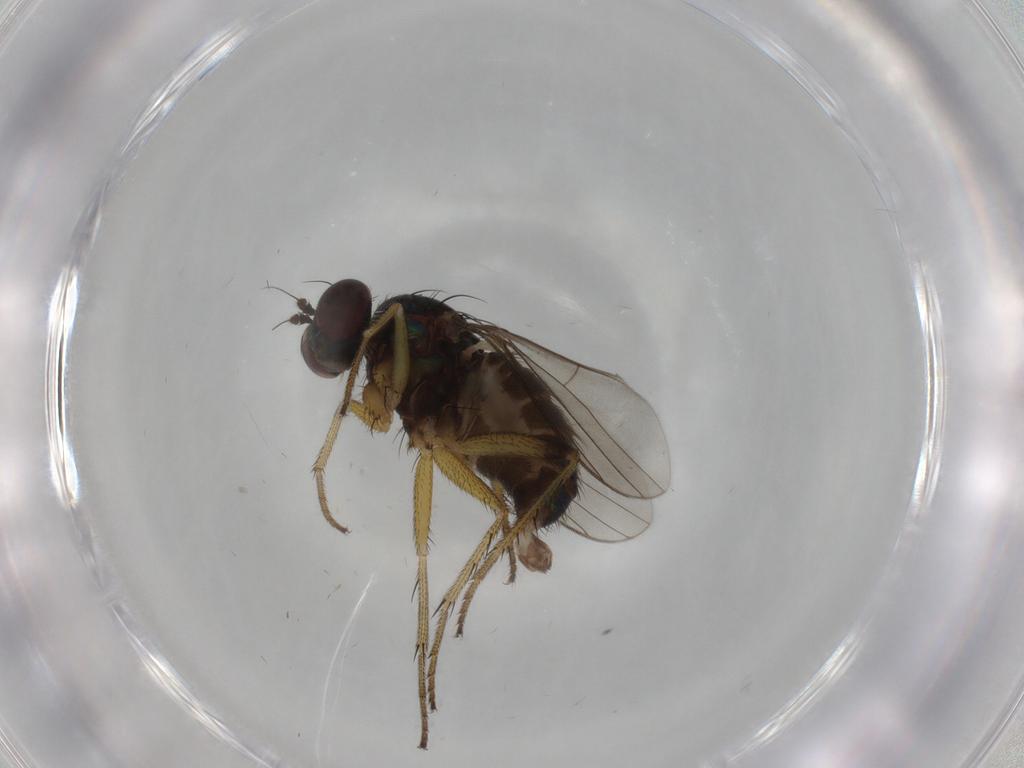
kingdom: Animalia
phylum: Arthropoda
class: Insecta
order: Diptera
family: Dolichopodidae
